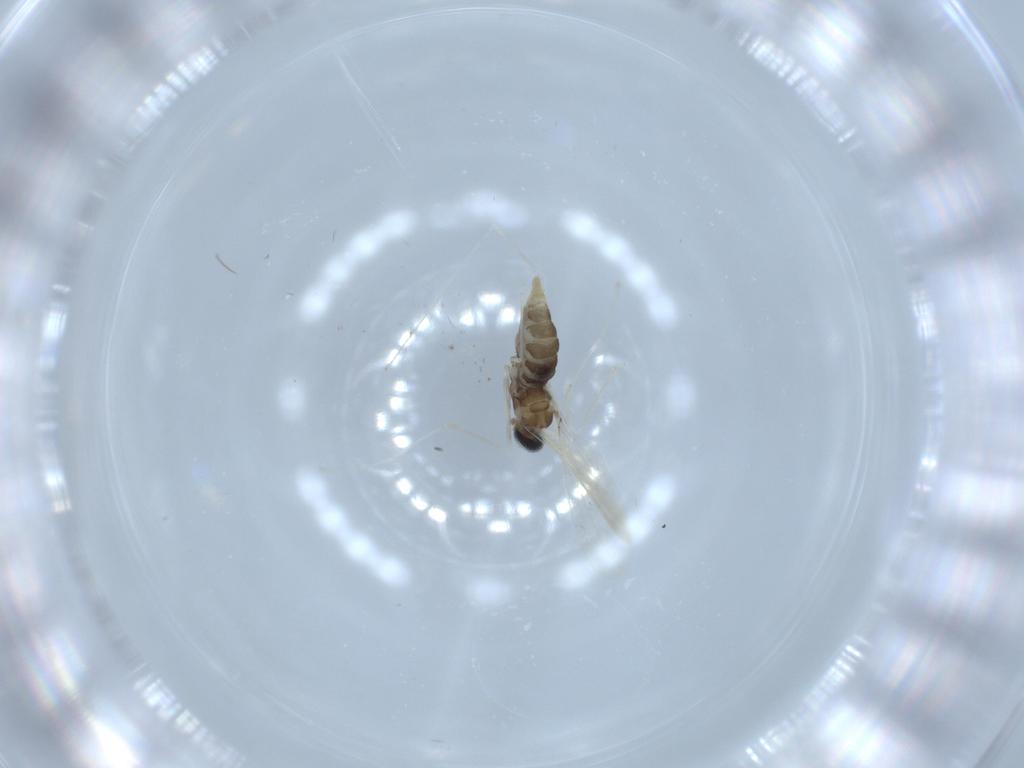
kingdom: Animalia
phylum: Arthropoda
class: Insecta
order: Diptera
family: Cecidomyiidae
